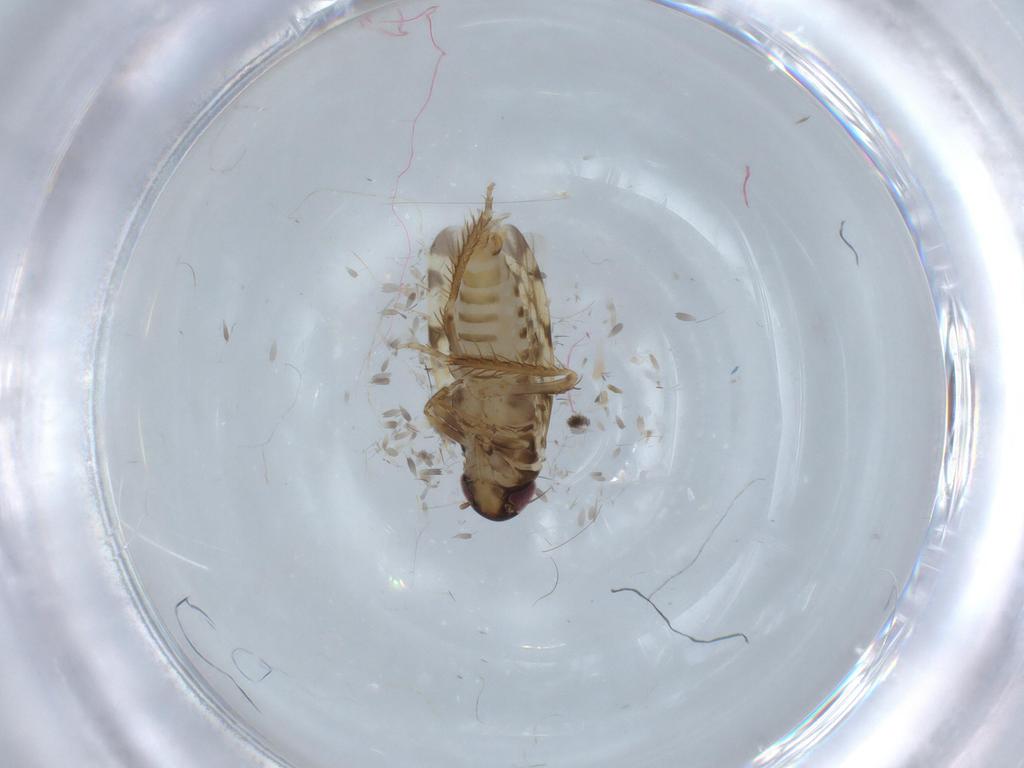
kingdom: Animalia
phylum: Arthropoda
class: Insecta
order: Hemiptera
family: Cicadellidae
